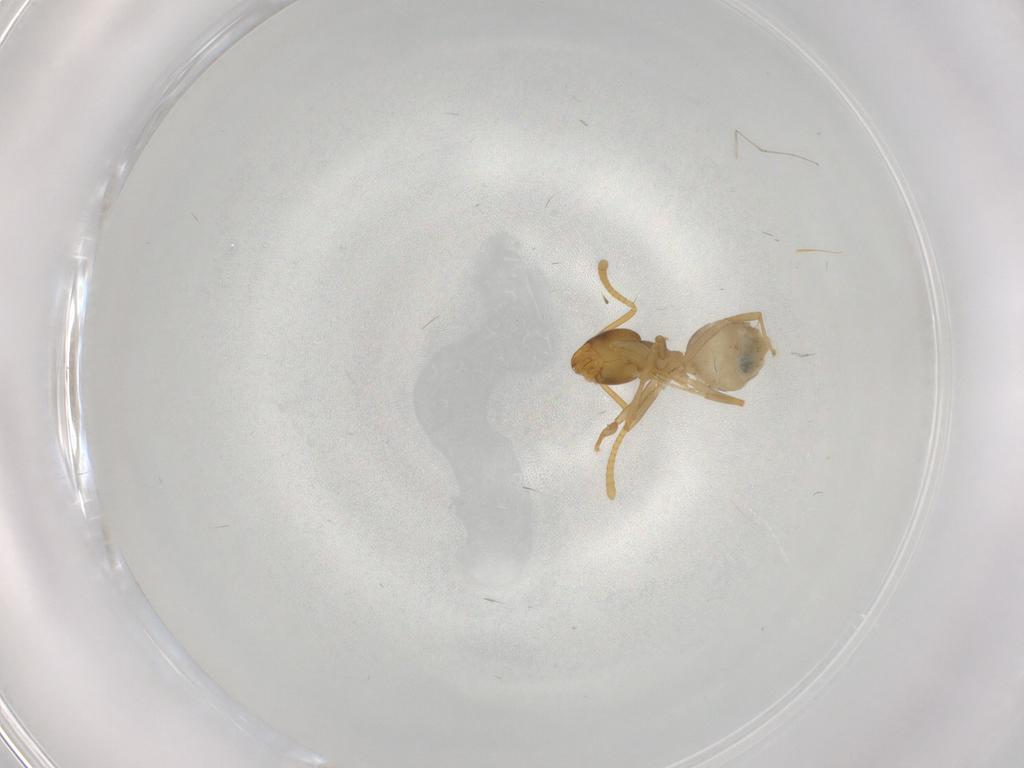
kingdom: Animalia
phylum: Arthropoda
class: Insecta
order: Hymenoptera
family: Formicidae
